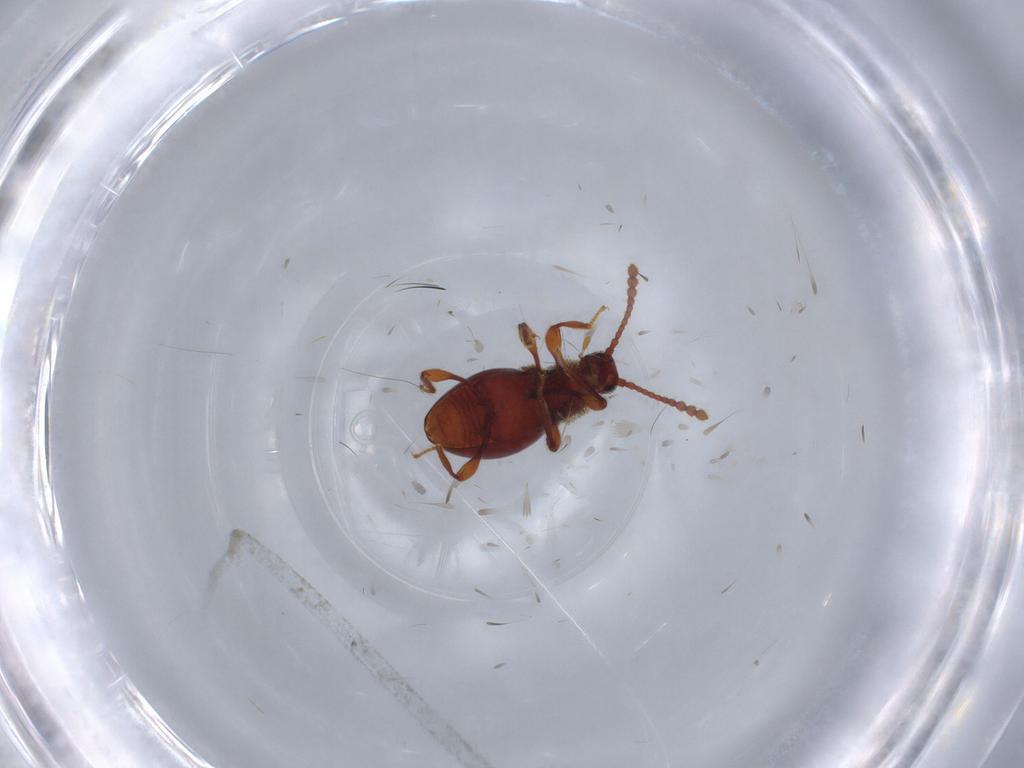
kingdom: Animalia
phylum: Arthropoda
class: Insecta
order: Coleoptera
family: Staphylinidae
